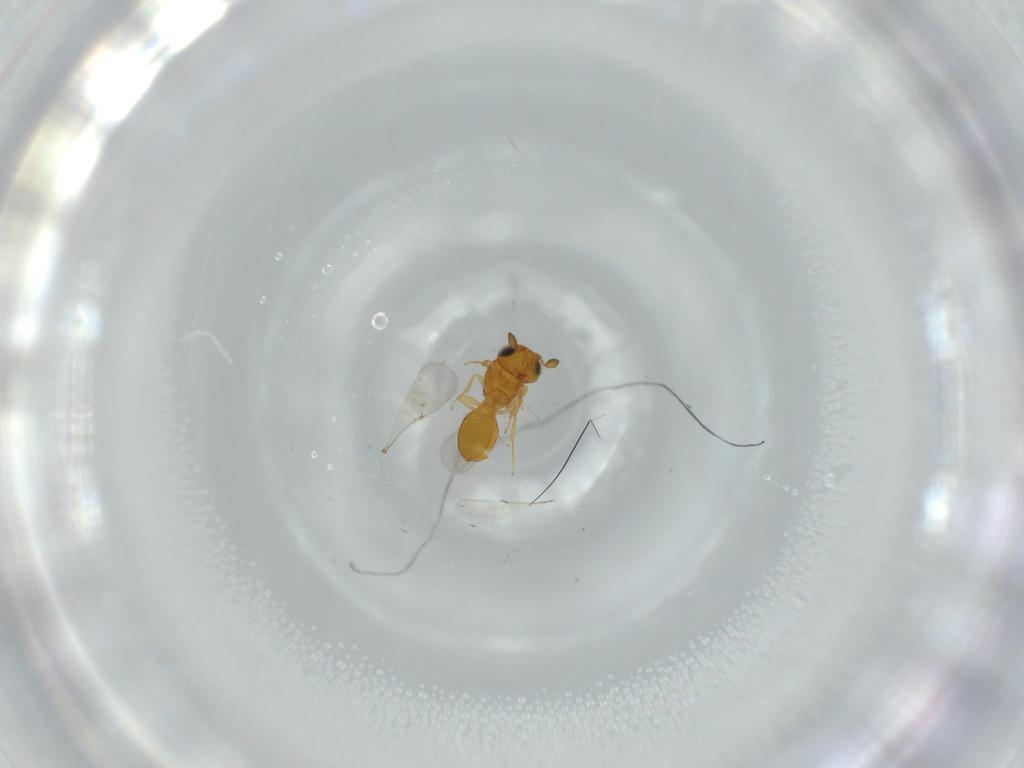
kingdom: Animalia
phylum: Arthropoda
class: Insecta
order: Hymenoptera
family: Scelionidae
